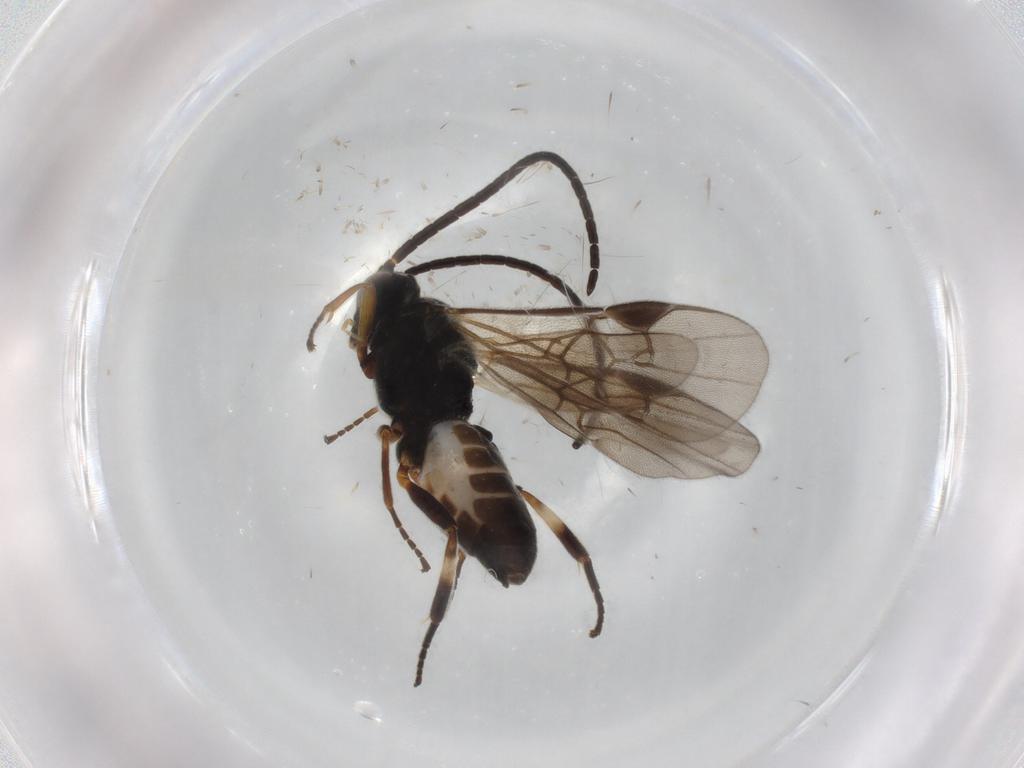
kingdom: Animalia
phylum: Arthropoda
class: Insecta
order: Hymenoptera
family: Braconidae
